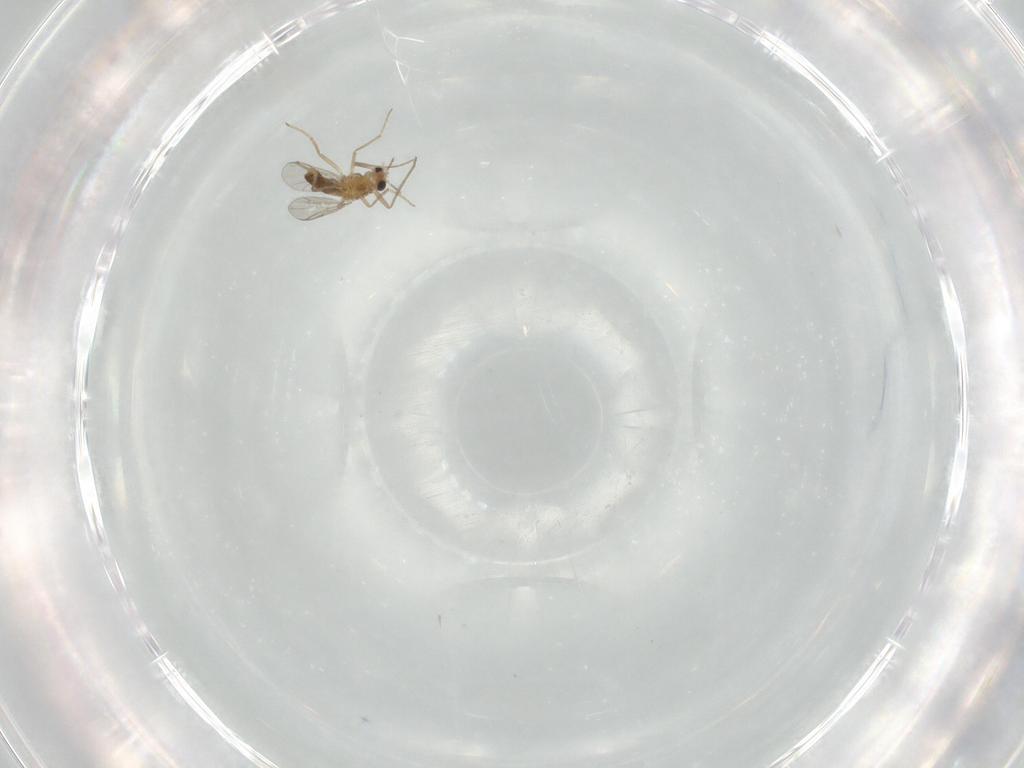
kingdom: Animalia
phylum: Arthropoda
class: Insecta
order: Diptera
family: Chironomidae
